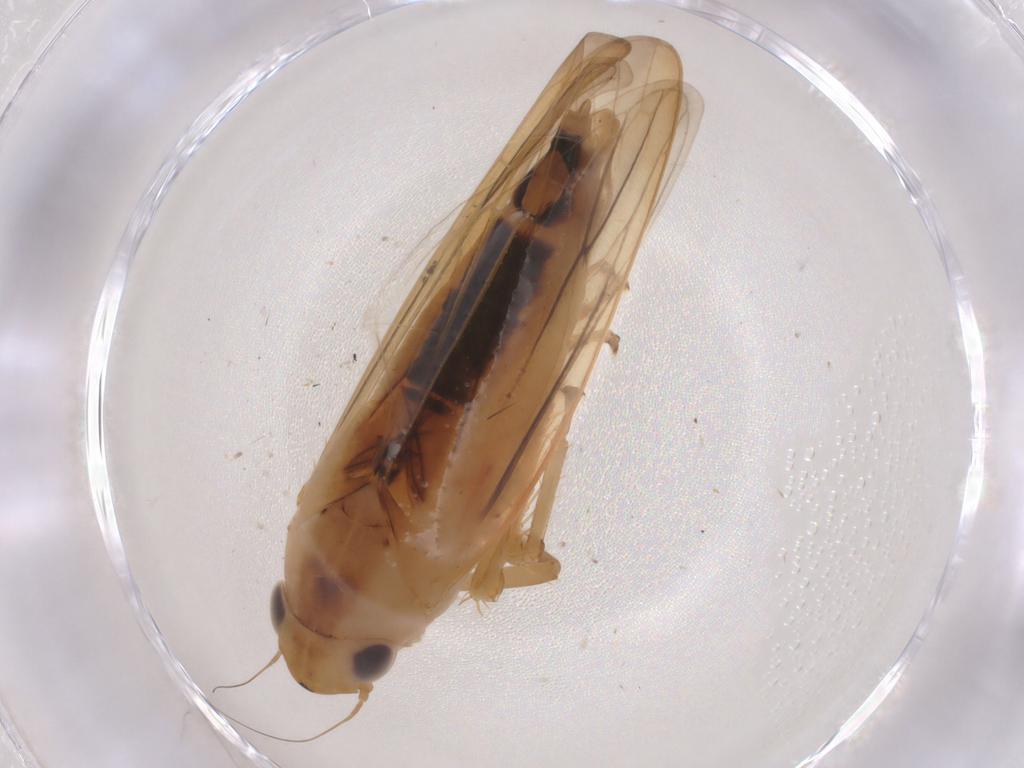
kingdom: Animalia
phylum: Arthropoda
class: Insecta
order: Hemiptera
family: Cicadellidae
